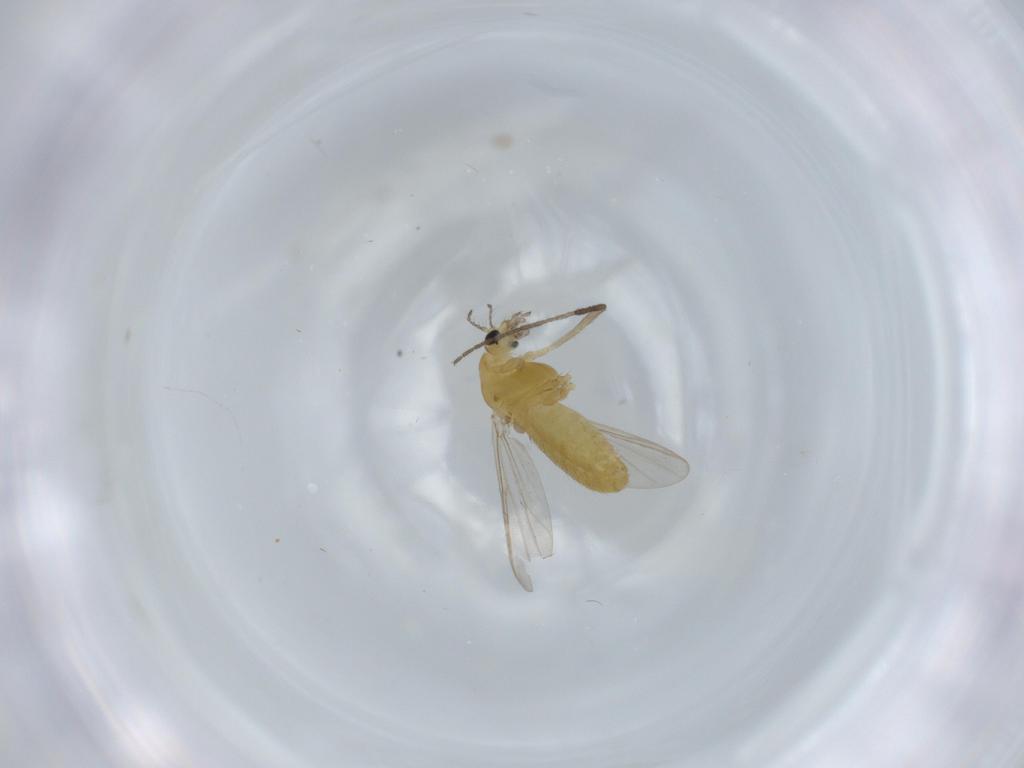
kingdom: Animalia
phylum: Arthropoda
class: Insecta
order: Diptera
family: Chironomidae
